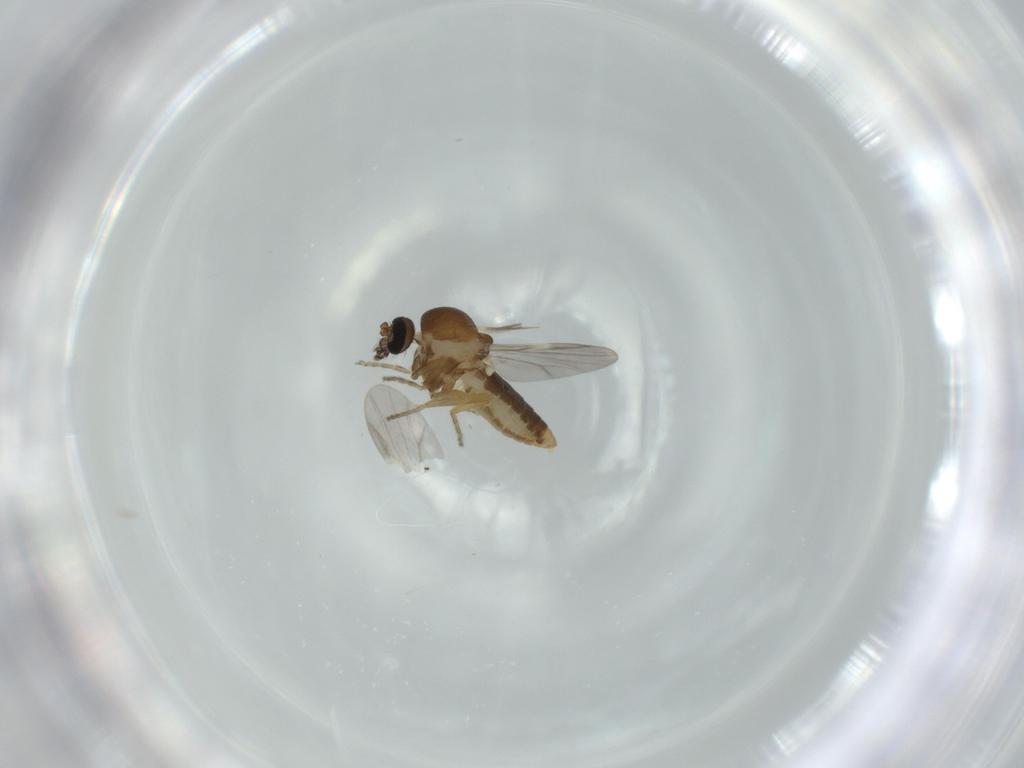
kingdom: Animalia
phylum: Arthropoda
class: Insecta
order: Diptera
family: Ceratopogonidae
